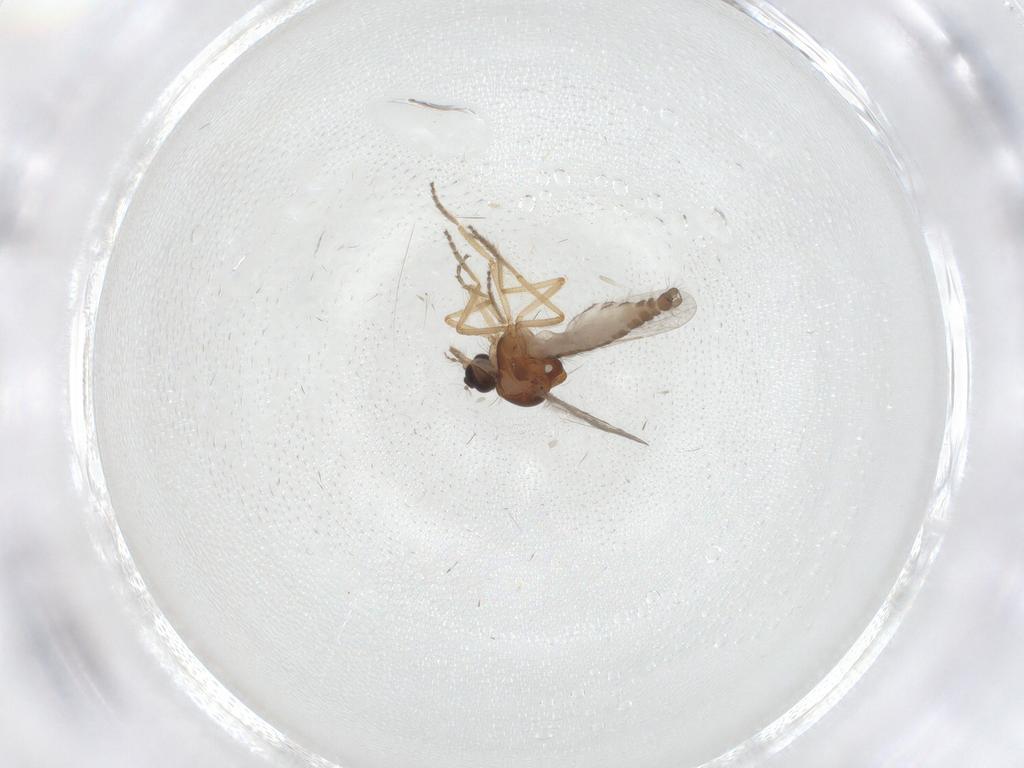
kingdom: Animalia
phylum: Arthropoda
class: Insecta
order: Diptera
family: Ceratopogonidae
